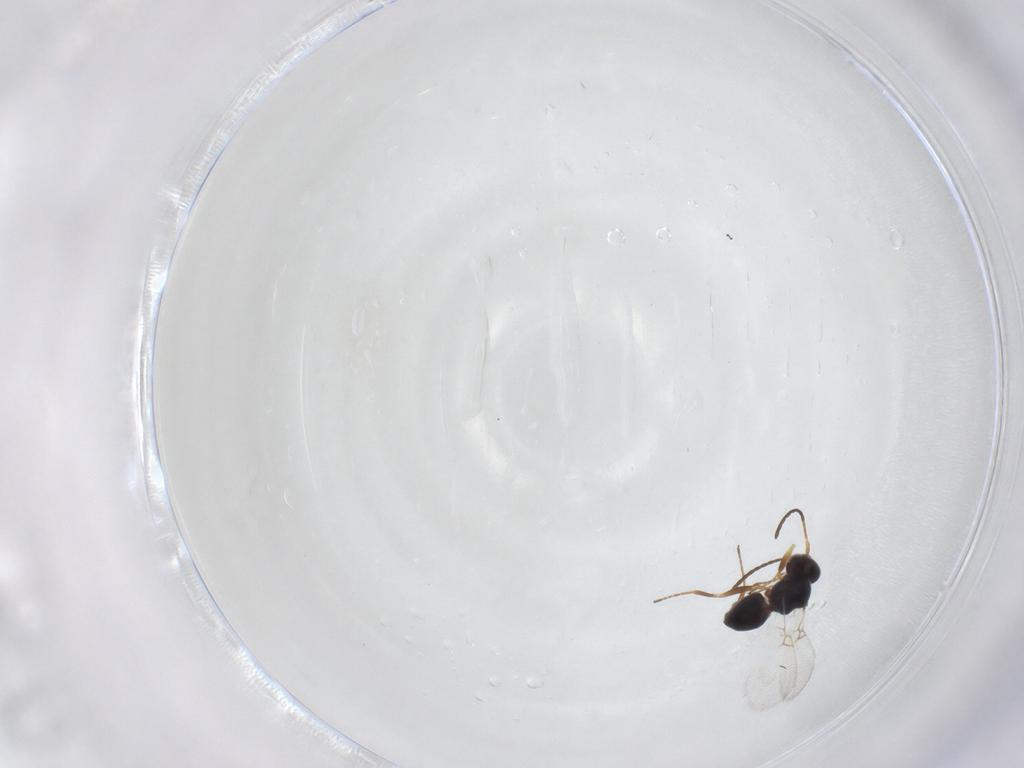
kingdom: Animalia
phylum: Arthropoda
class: Insecta
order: Hymenoptera
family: Figitidae
